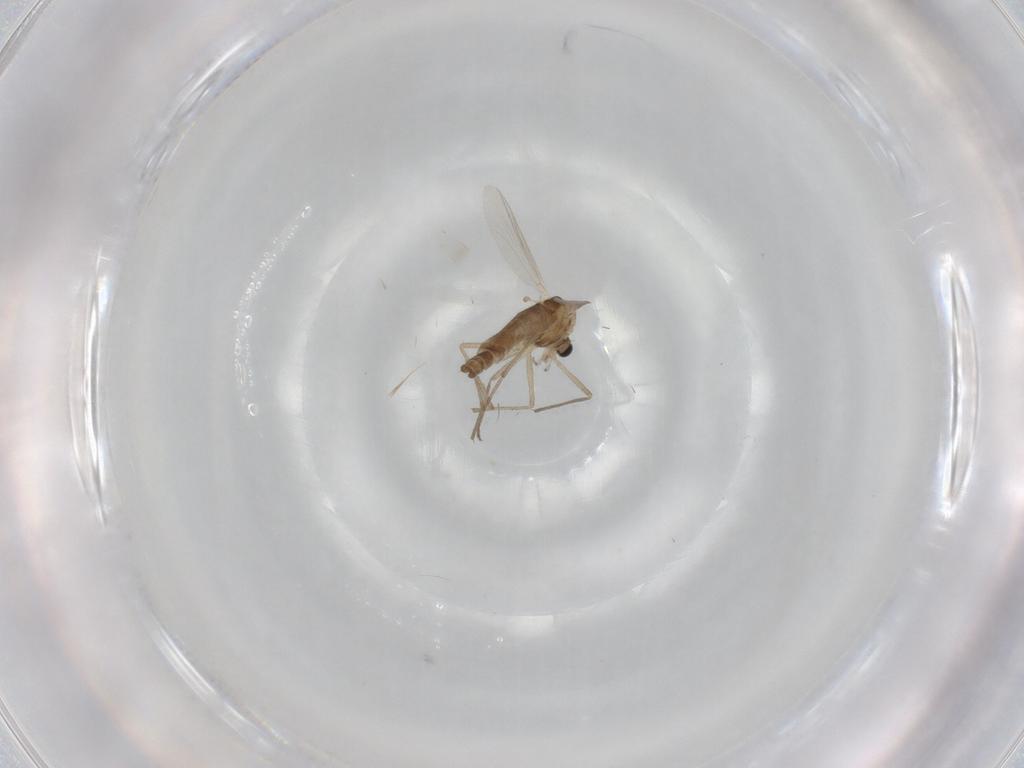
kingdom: Animalia
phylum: Arthropoda
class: Insecta
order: Diptera
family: Chironomidae
